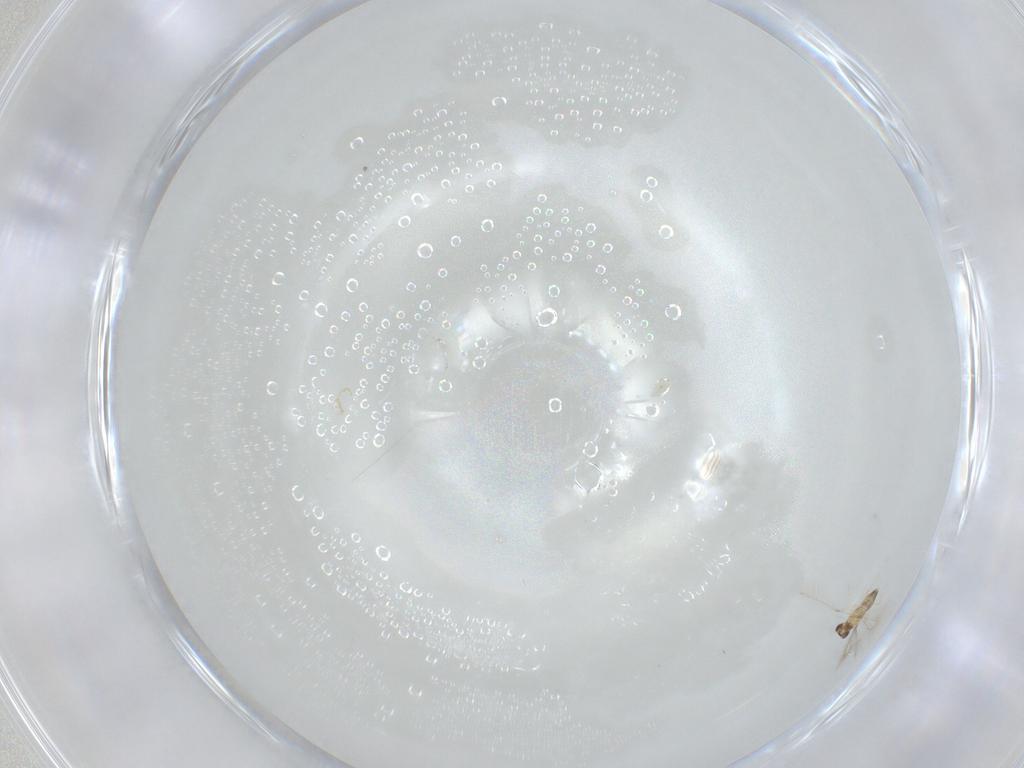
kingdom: Animalia
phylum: Arthropoda
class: Insecta
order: Hymenoptera
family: Mymaridae
